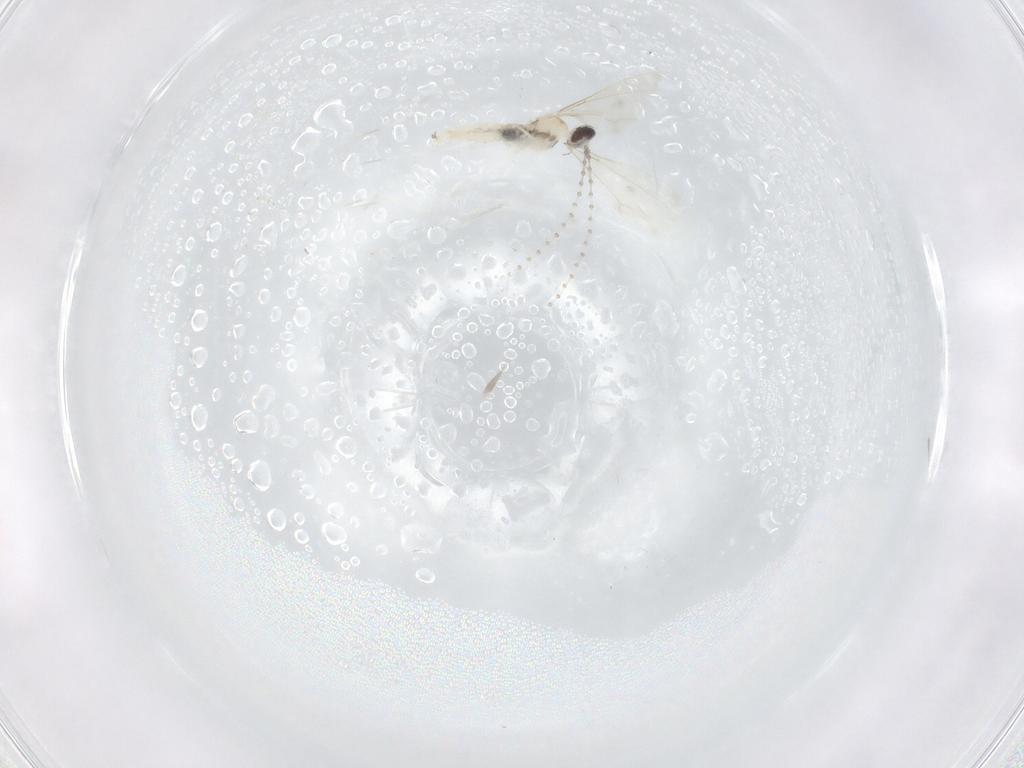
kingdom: Animalia
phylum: Arthropoda
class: Insecta
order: Diptera
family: Cecidomyiidae
